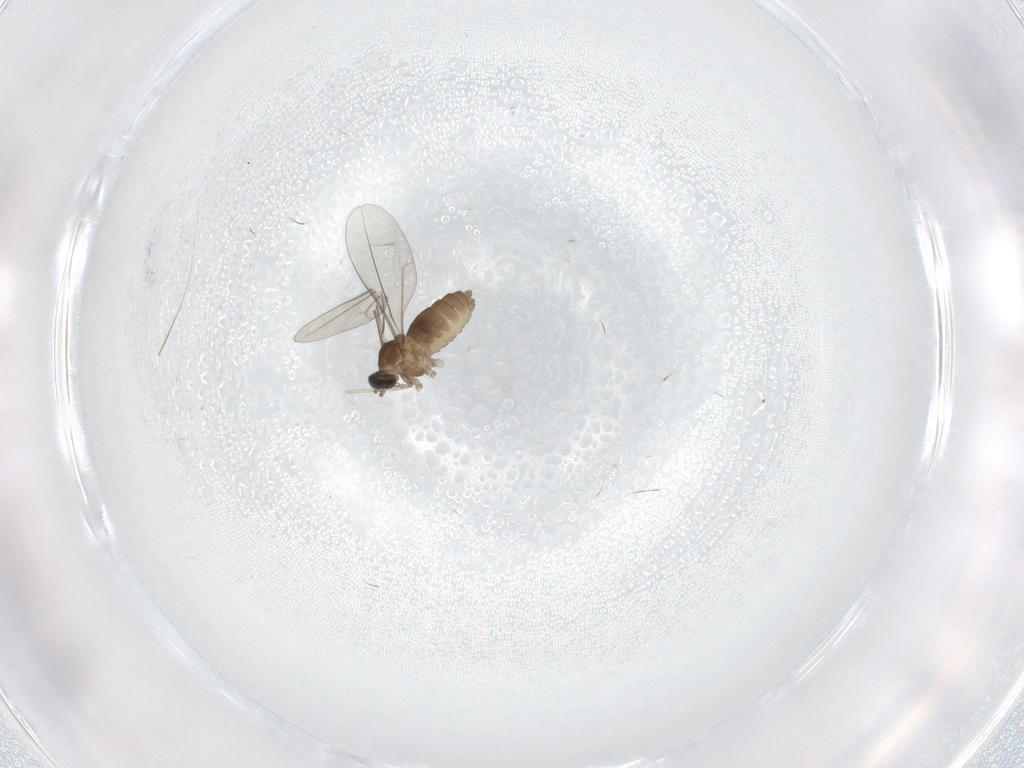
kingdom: Animalia
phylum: Arthropoda
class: Insecta
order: Diptera
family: Cecidomyiidae
